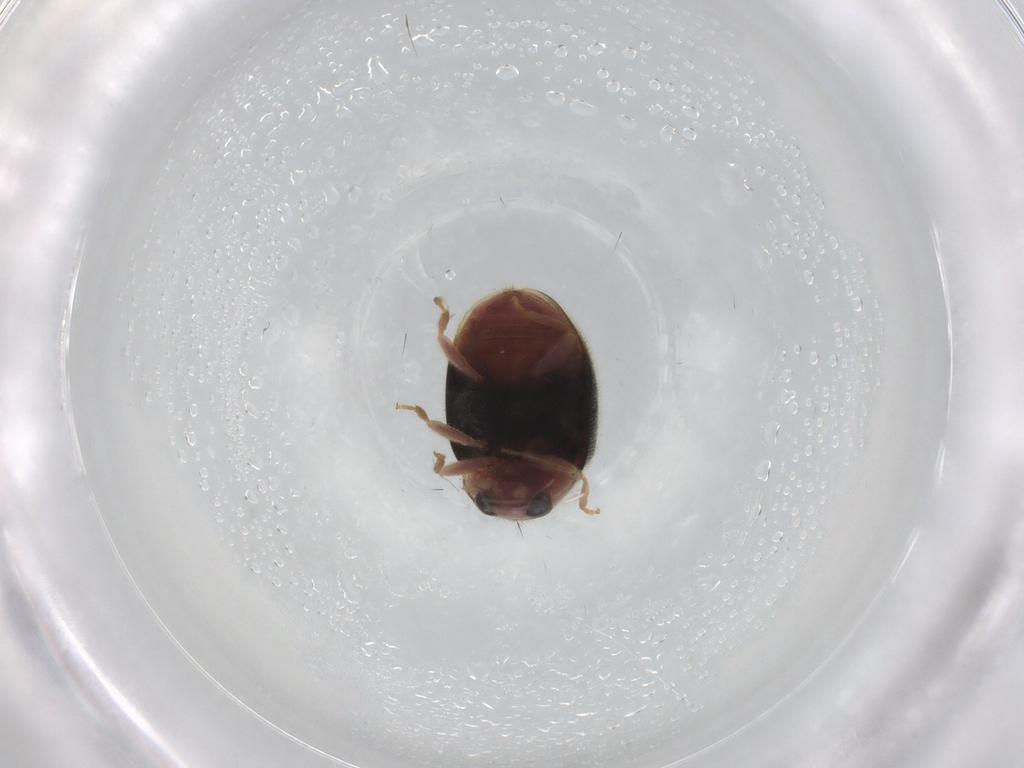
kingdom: Animalia
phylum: Arthropoda
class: Insecta
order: Coleoptera
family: Coccinellidae
